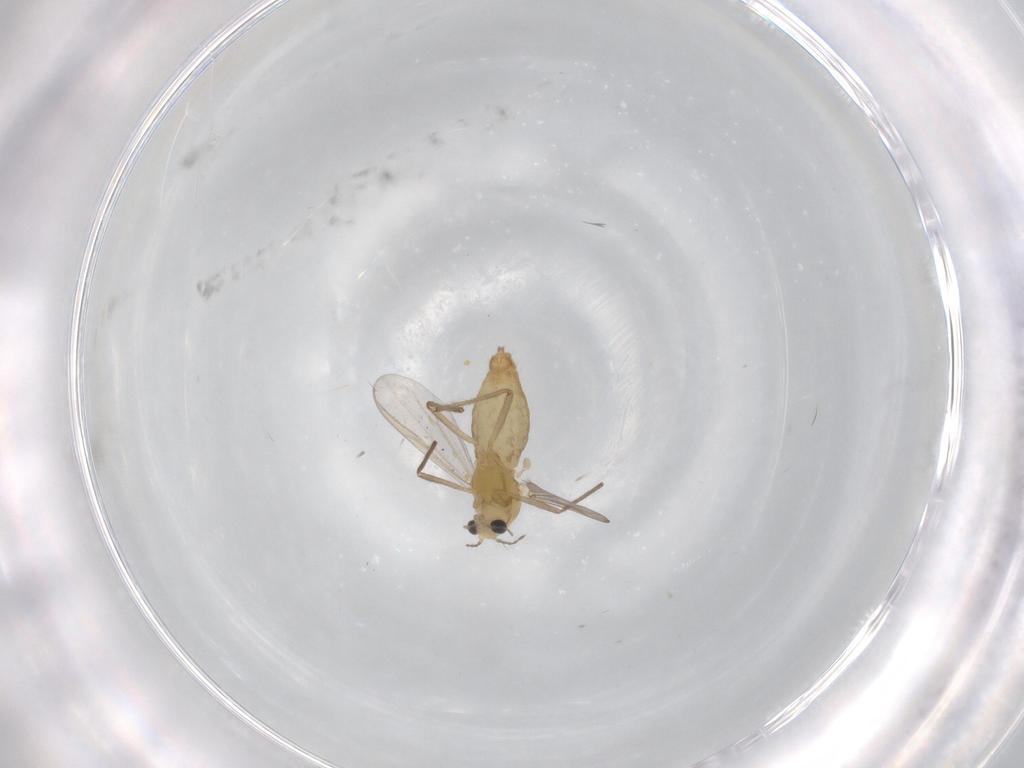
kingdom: Animalia
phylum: Arthropoda
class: Insecta
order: Diptera
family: Chironomidae
